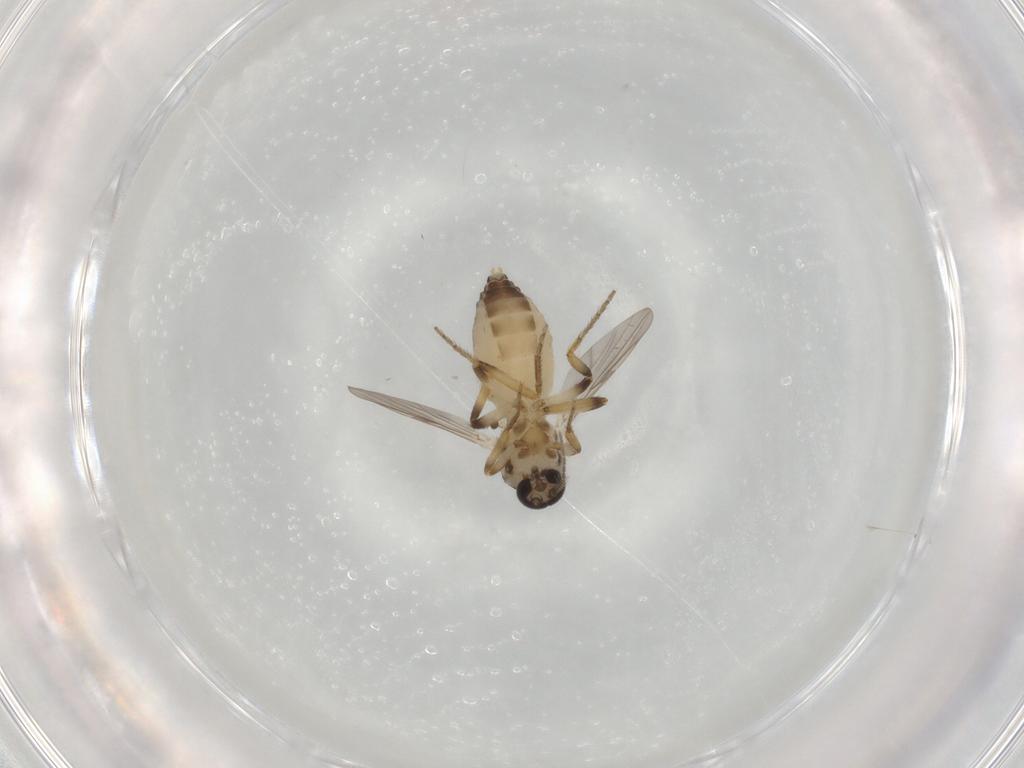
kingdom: Animalia
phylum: Arthropoda
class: Insecta
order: Diptera
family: Ceratopogonidae
